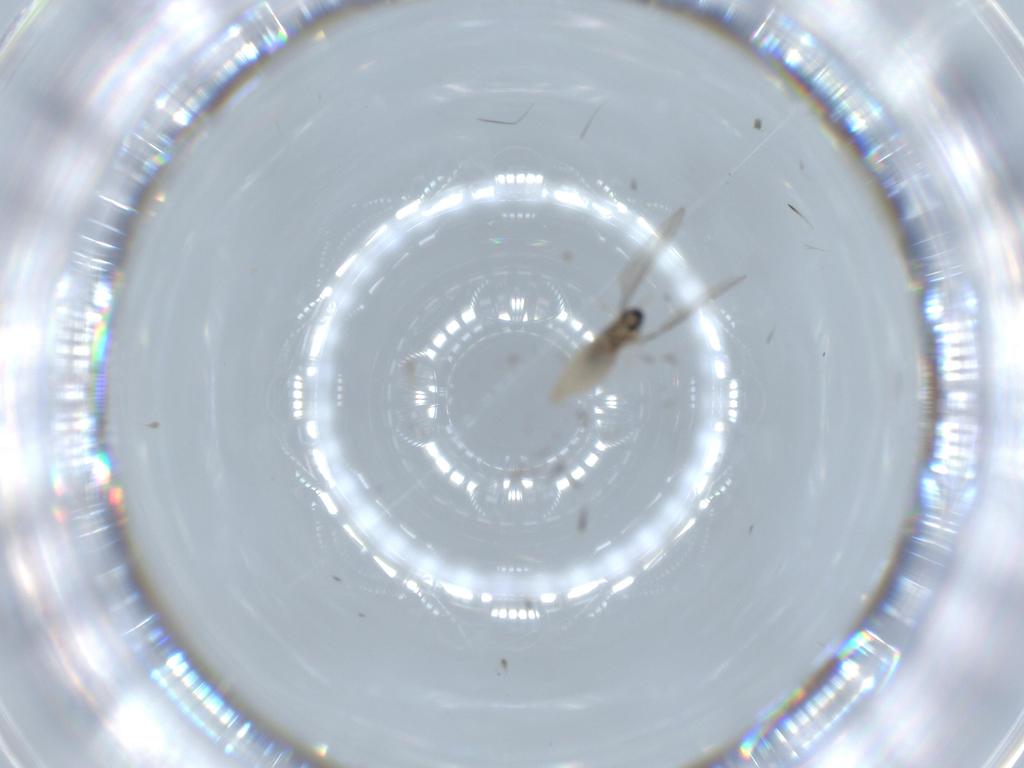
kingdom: Animalia
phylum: Arthropoda
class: Insecta
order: Diptera
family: Cecidomyiidae
